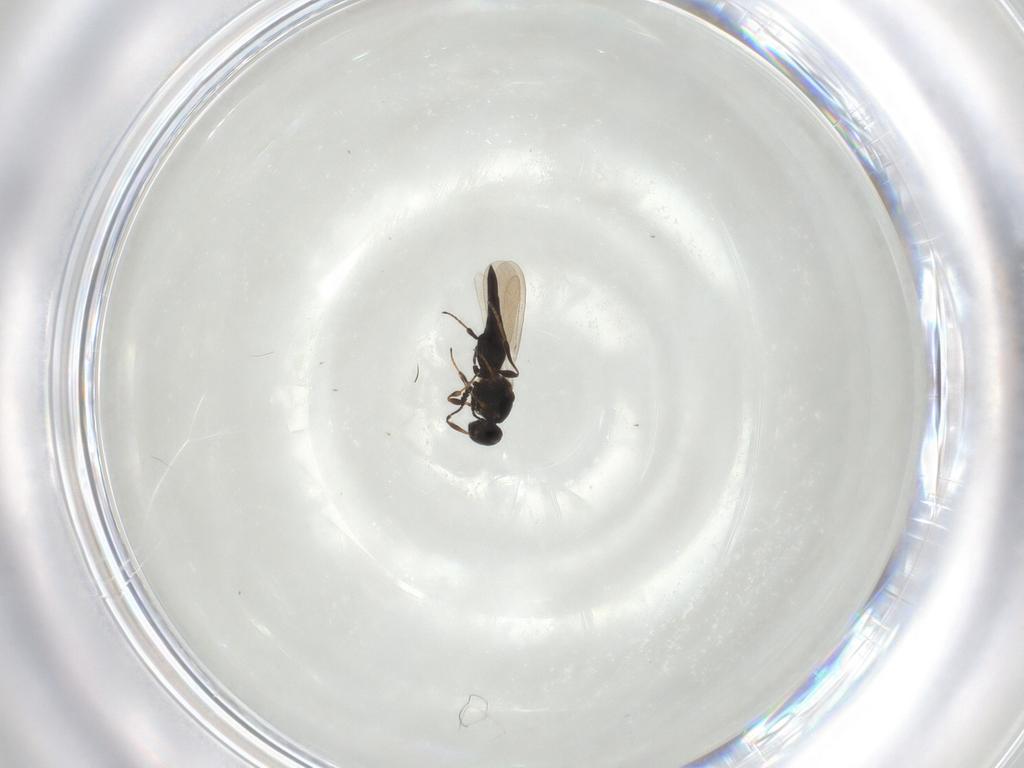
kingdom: Animalia
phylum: Arthropoda
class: Insecta
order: Hymenoptera
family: Platygastridae
